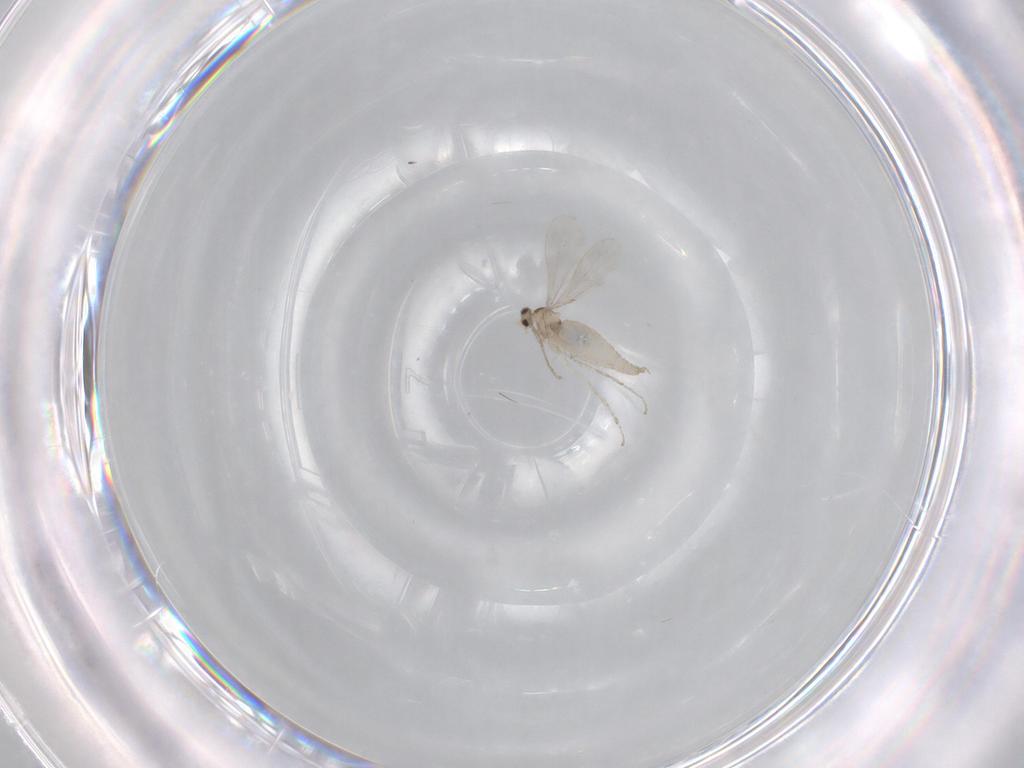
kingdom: Animalia
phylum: Arthropoda
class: Insecta
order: Diptera
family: Cecidomyiidae
